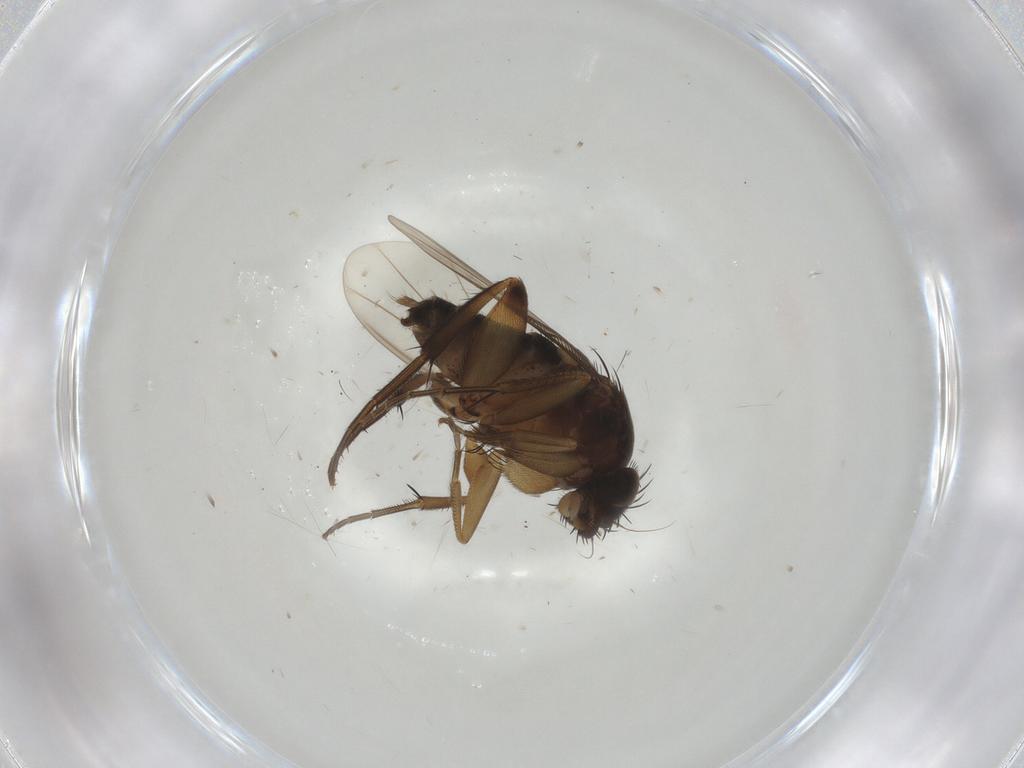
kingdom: Animalia
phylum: Arthropoda
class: Insecta
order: Diptera
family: Phoridae
